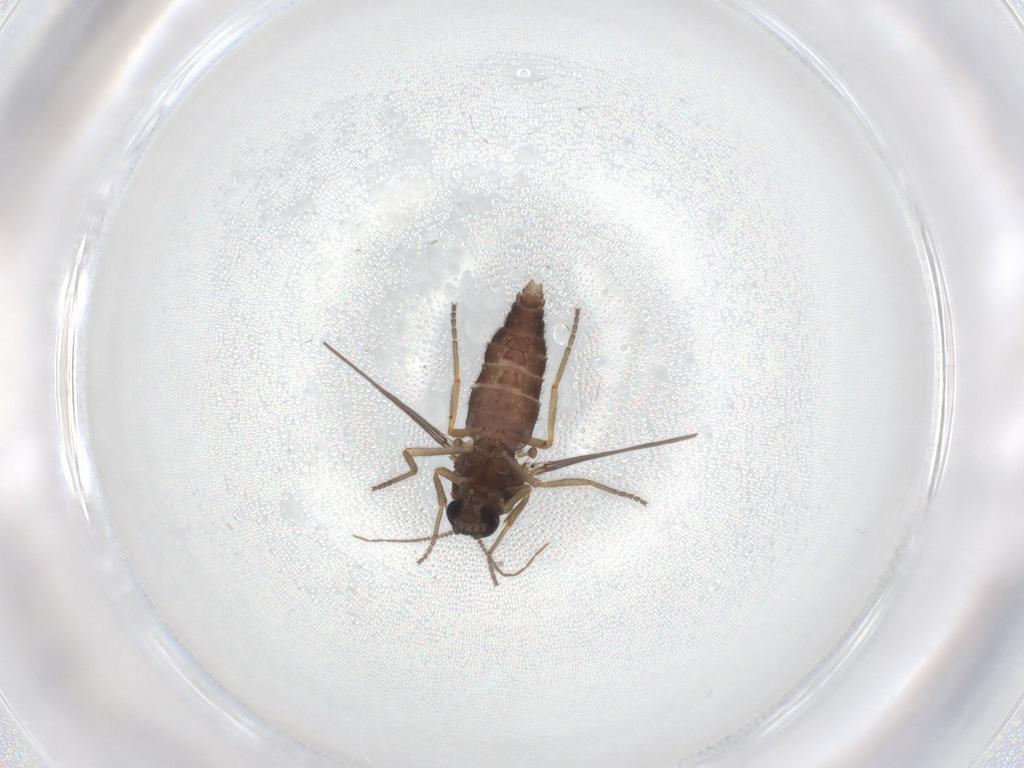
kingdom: Animalia
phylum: Arthropoda
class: Insecta
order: Diptera
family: Ceratopogonidae
